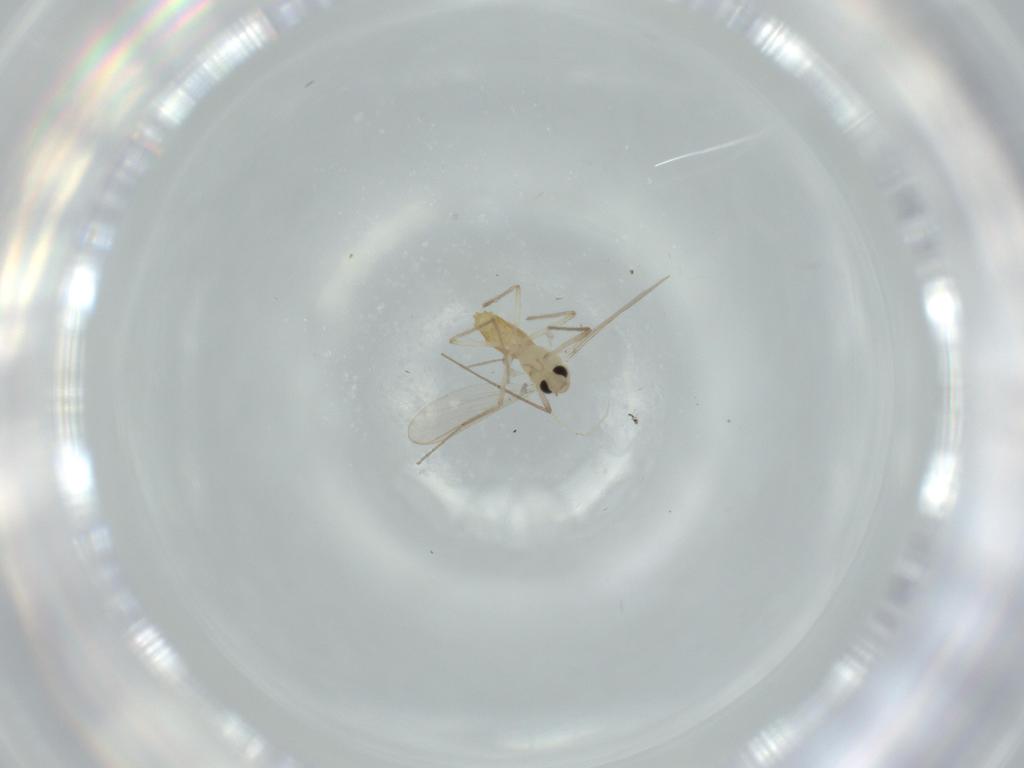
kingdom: Animalia
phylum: Arthropoda
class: Insecta
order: Diptera
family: Chironomidae
